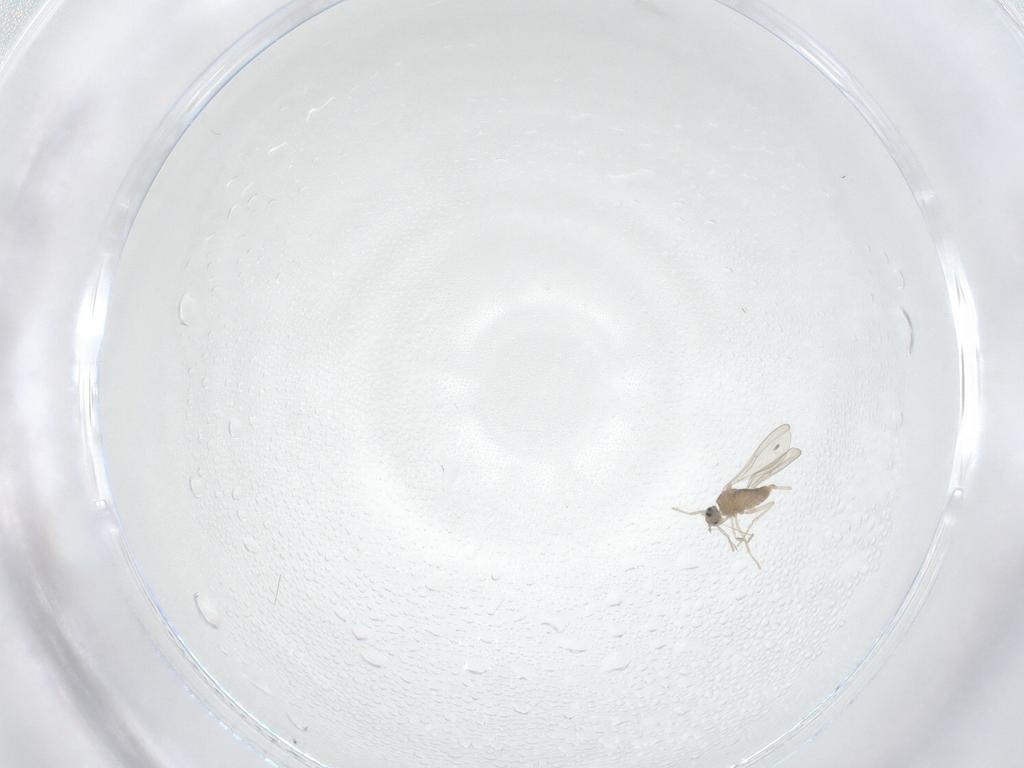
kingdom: Animalia
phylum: Arthropoda
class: Insecta
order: Diptera
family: Cecidomyiidae
